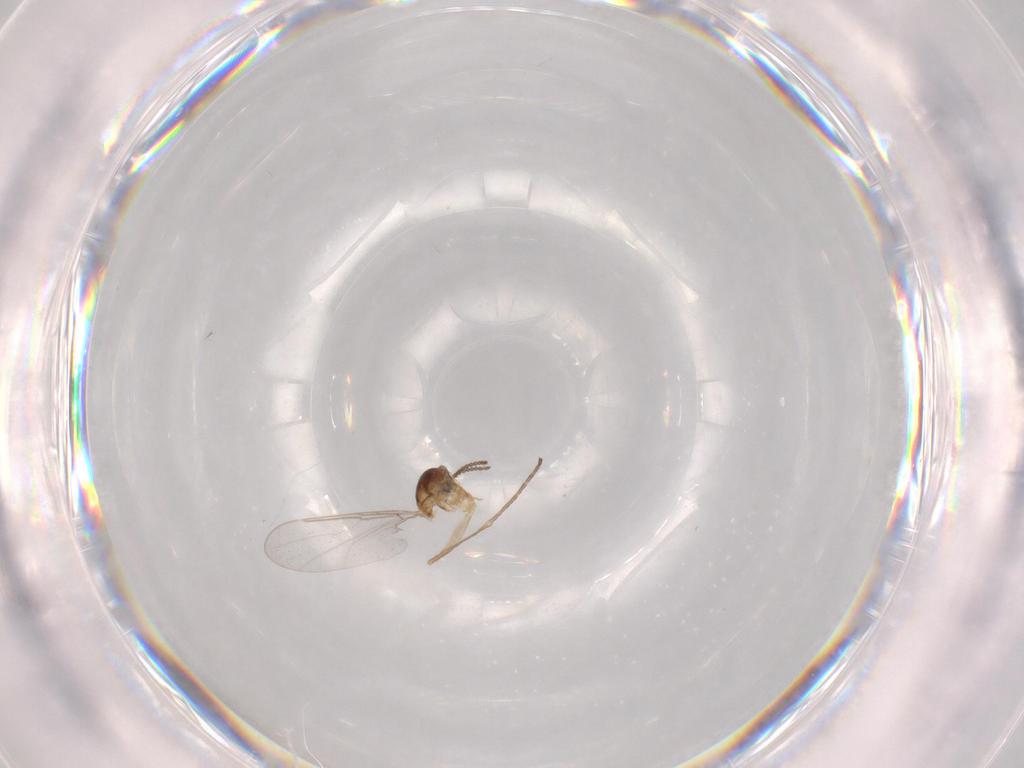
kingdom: Animalia
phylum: Arthropoda
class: Insecta
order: Diptera
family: Cecidomyiidae
